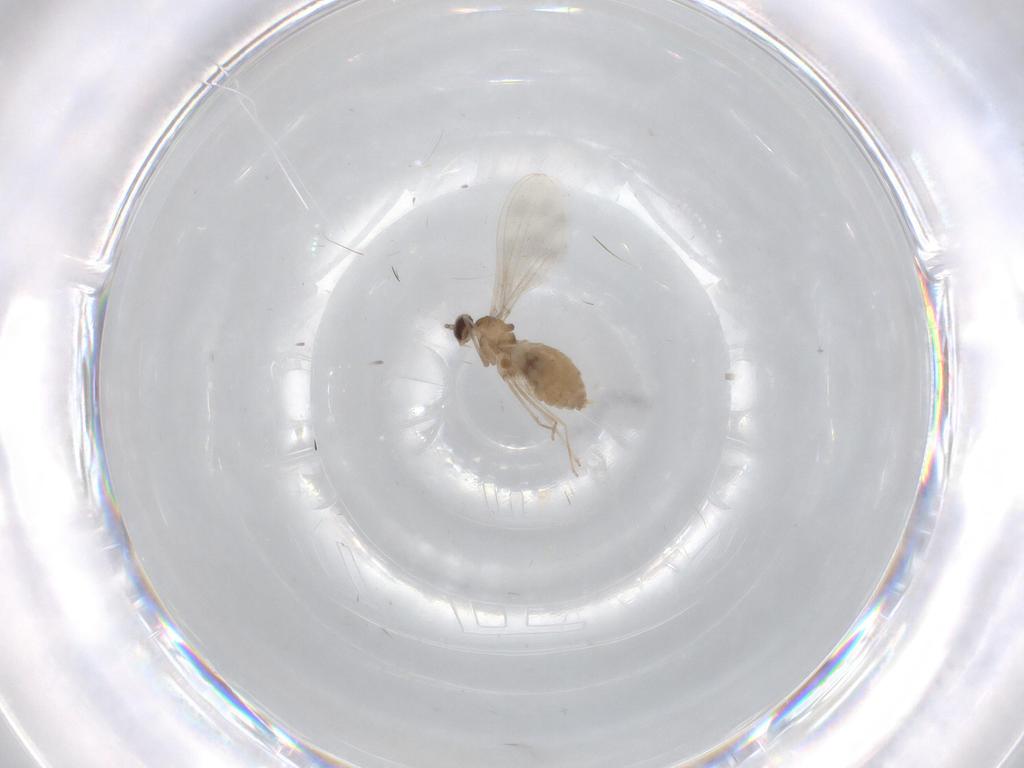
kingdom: Animalia
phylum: Arthropoda
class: Insecta
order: Diptera
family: Cecidomyiidae
